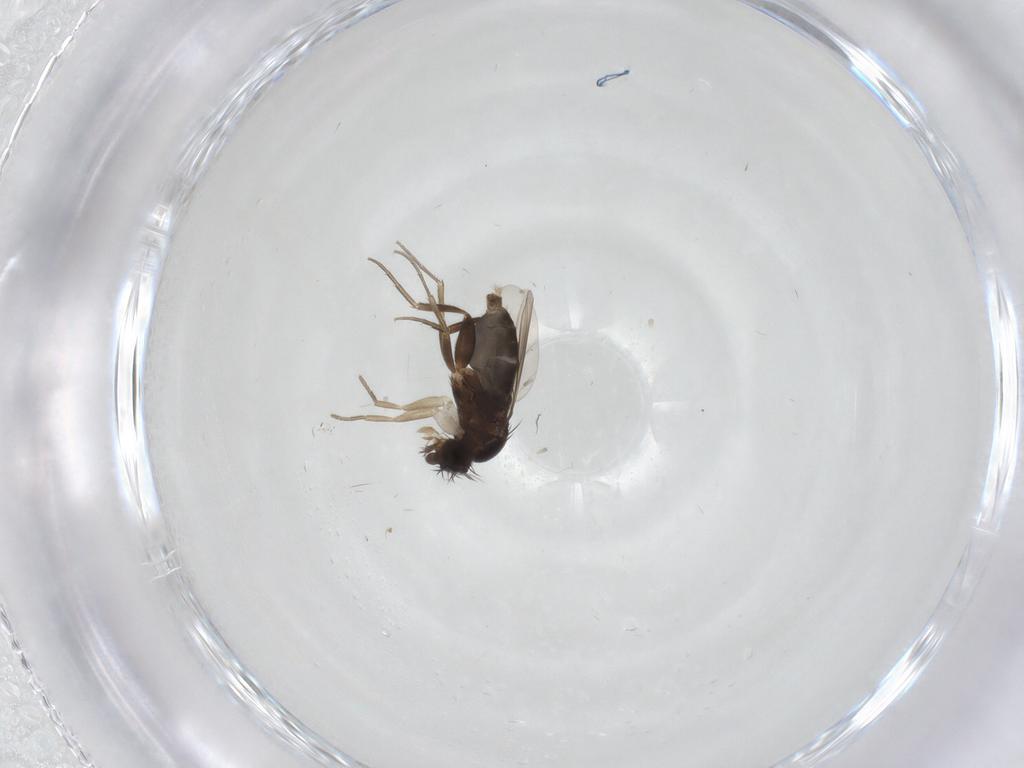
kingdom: Animalia
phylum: Arthropoda
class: Insecta
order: Diptera
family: Phoridae
